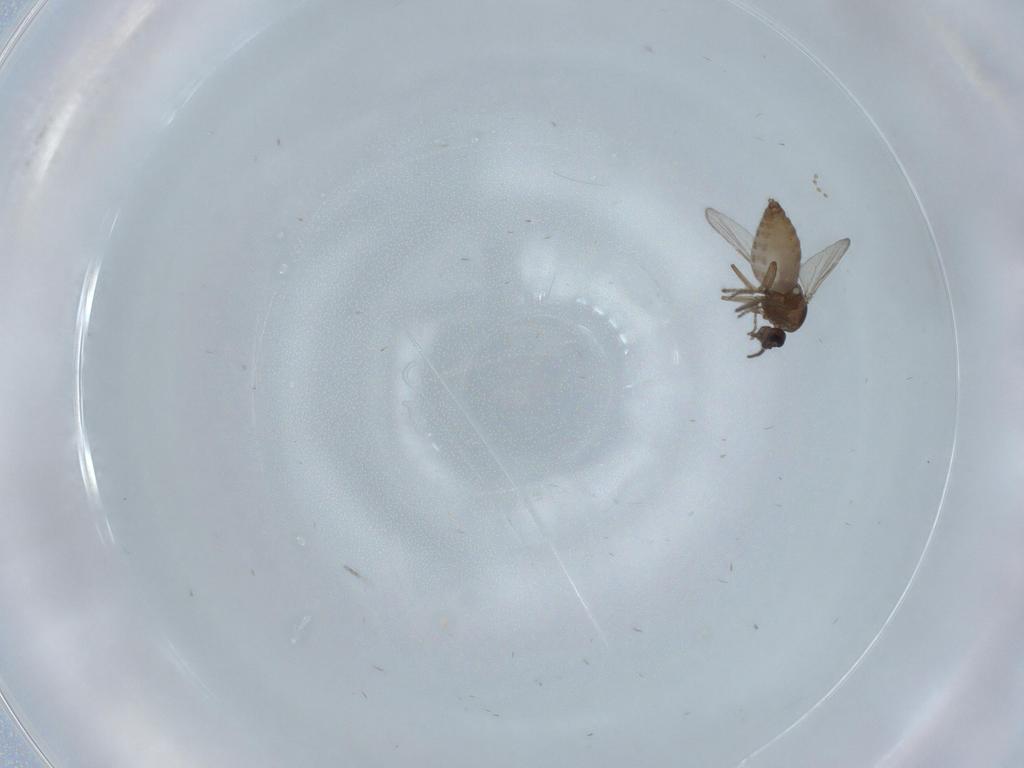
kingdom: Animalia
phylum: Arthropoda
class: Insecta
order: Diptera
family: Ceratopogonidae
